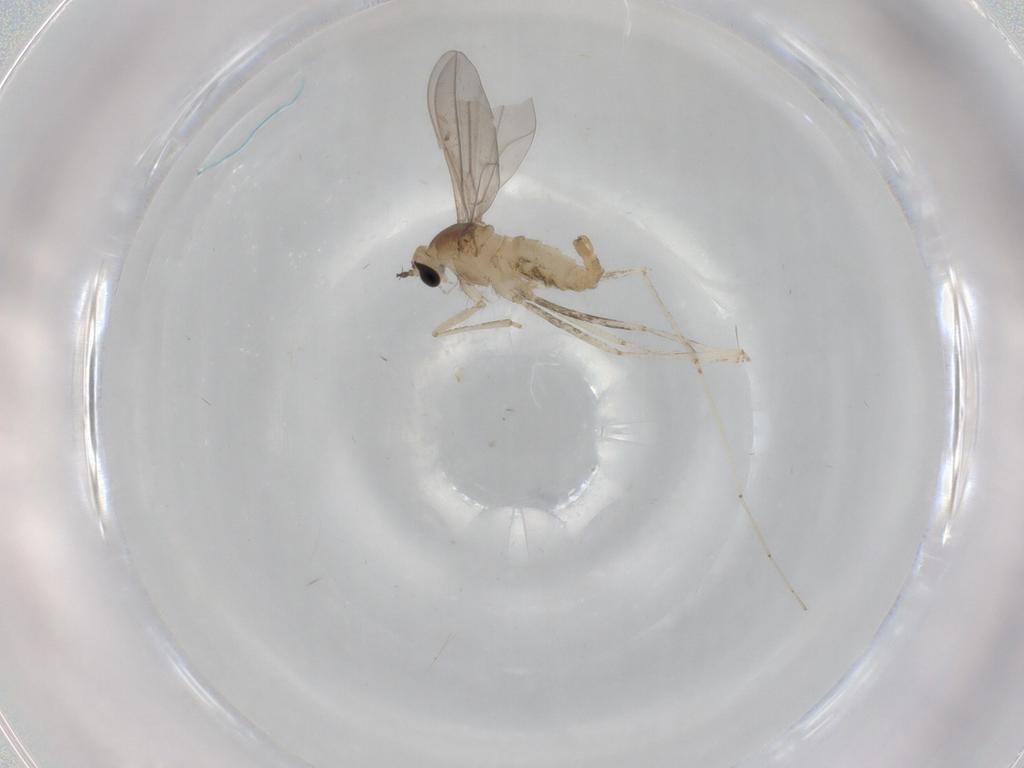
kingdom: Animalia
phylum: Arthropoda
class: Insecta
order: Diptera
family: Cecidomyiidae
